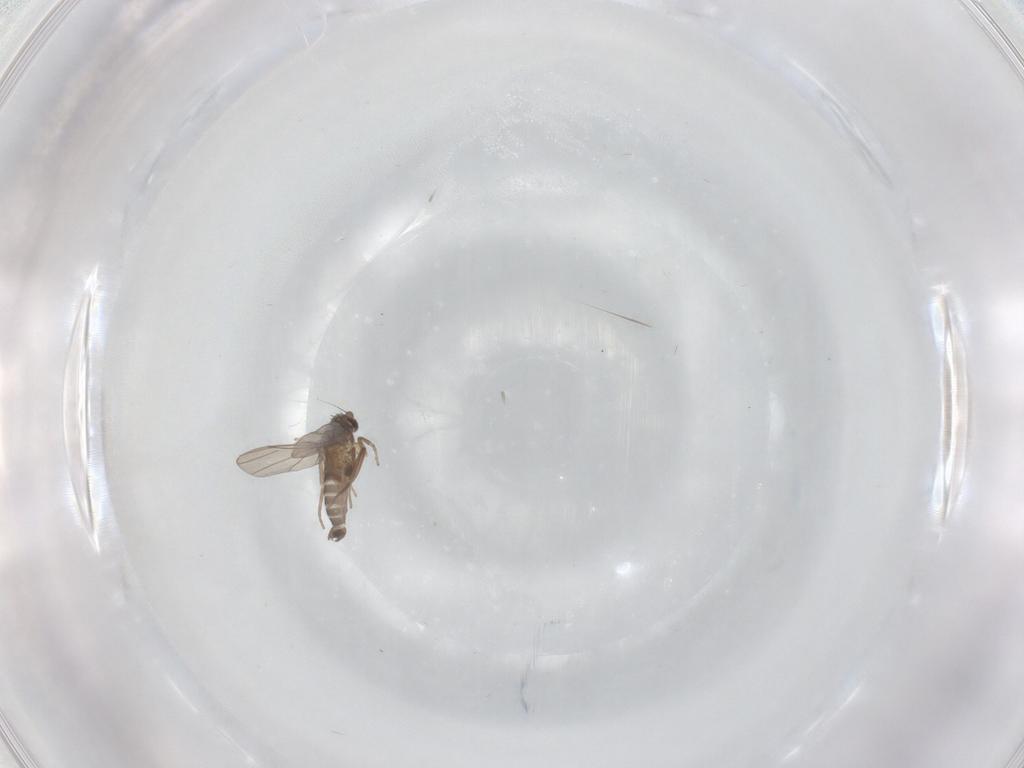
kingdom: Animalia
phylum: Arthropoda
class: Insecta
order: Diptera
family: Phoridae
